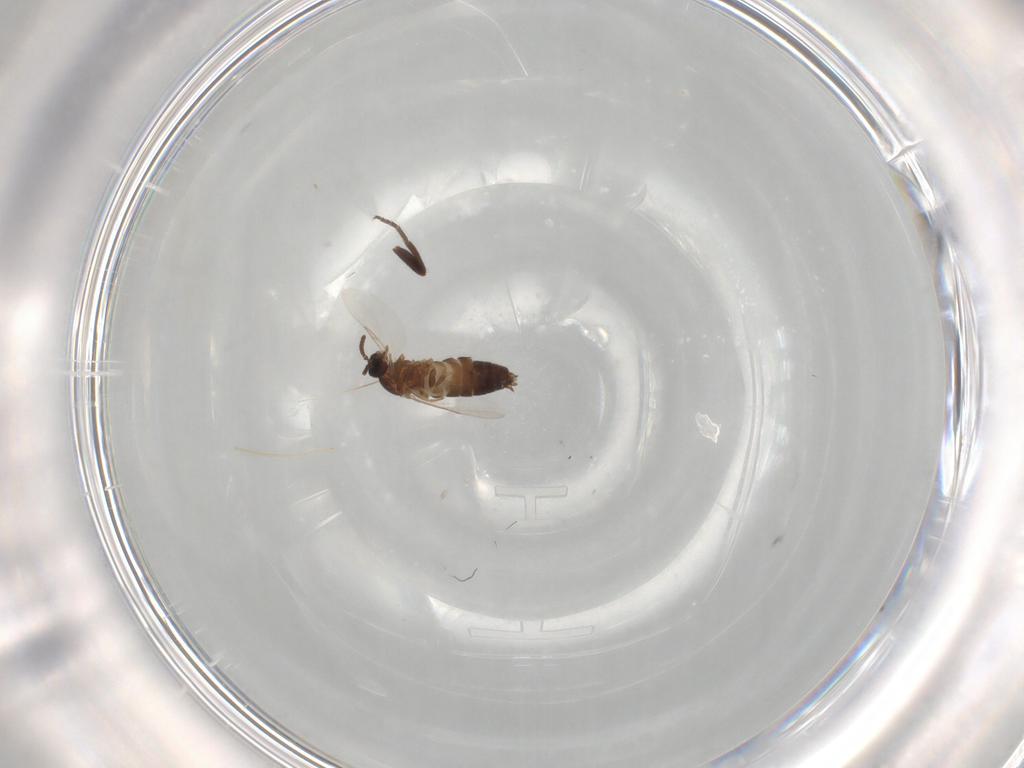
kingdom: Animalia
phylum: Arthropoda
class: Insecta
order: Diptera
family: Scatopsidae
